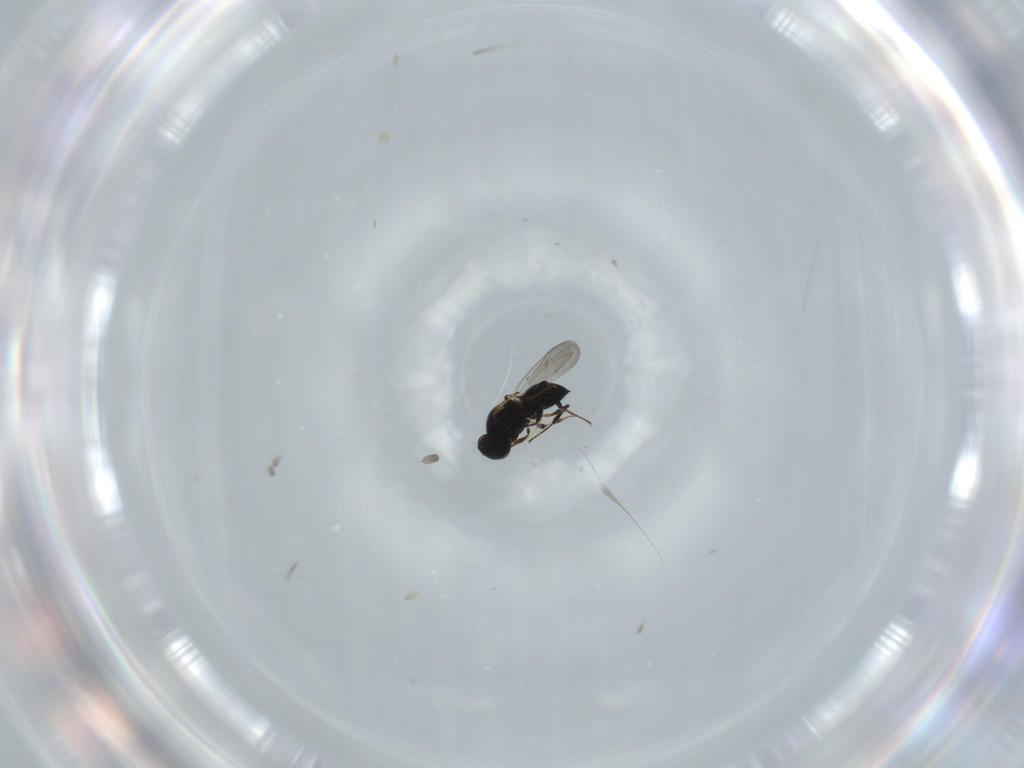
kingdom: Animalia
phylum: Arthropoda
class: Insecta
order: Hymenoptera
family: Platygastridae
